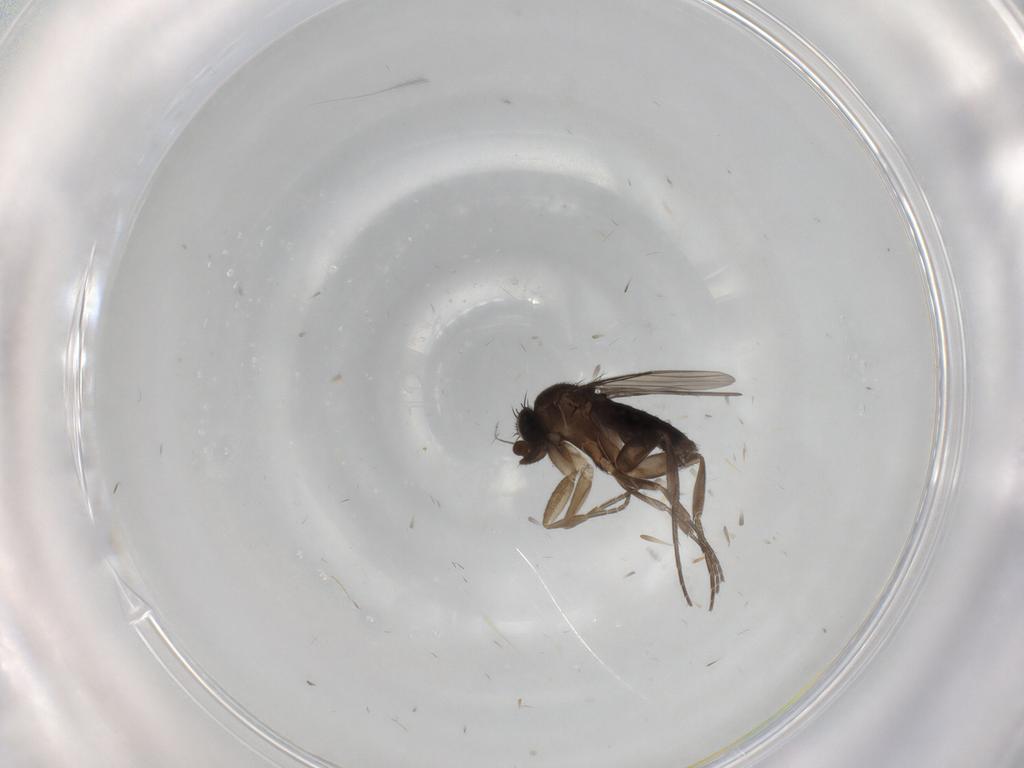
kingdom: Animalia
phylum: Arthropoda
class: Insecta
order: Diptera
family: Phoridae
